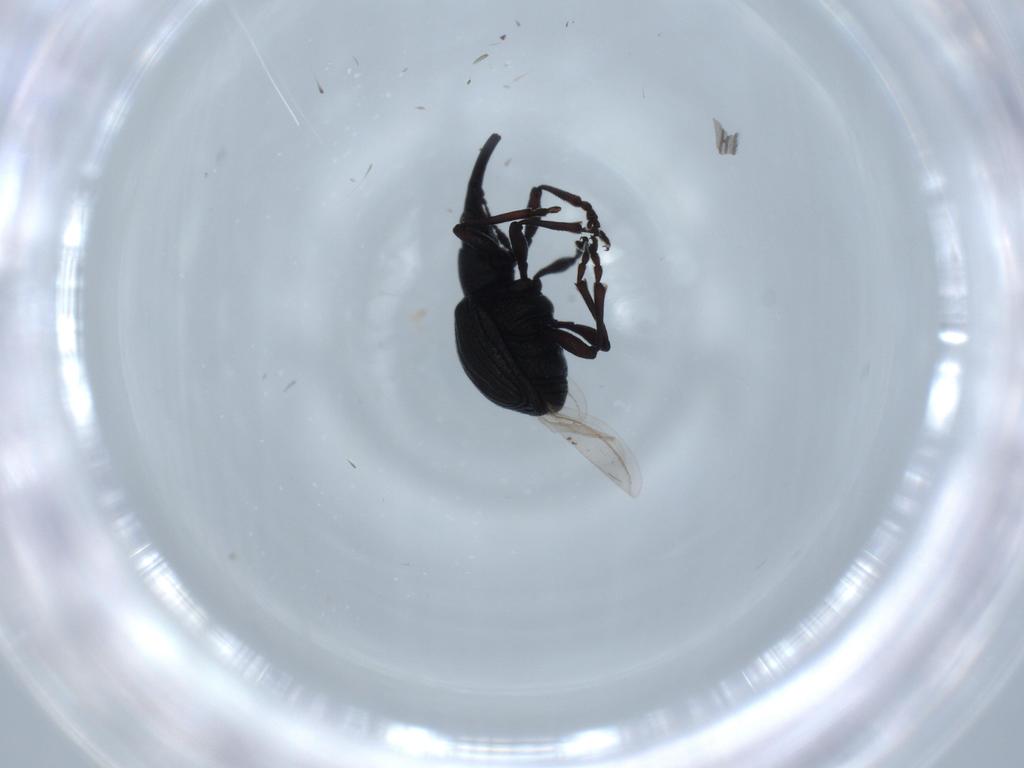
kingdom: Animalia
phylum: Arthropoda
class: Insecta
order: Coleoptera
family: Brentidae
